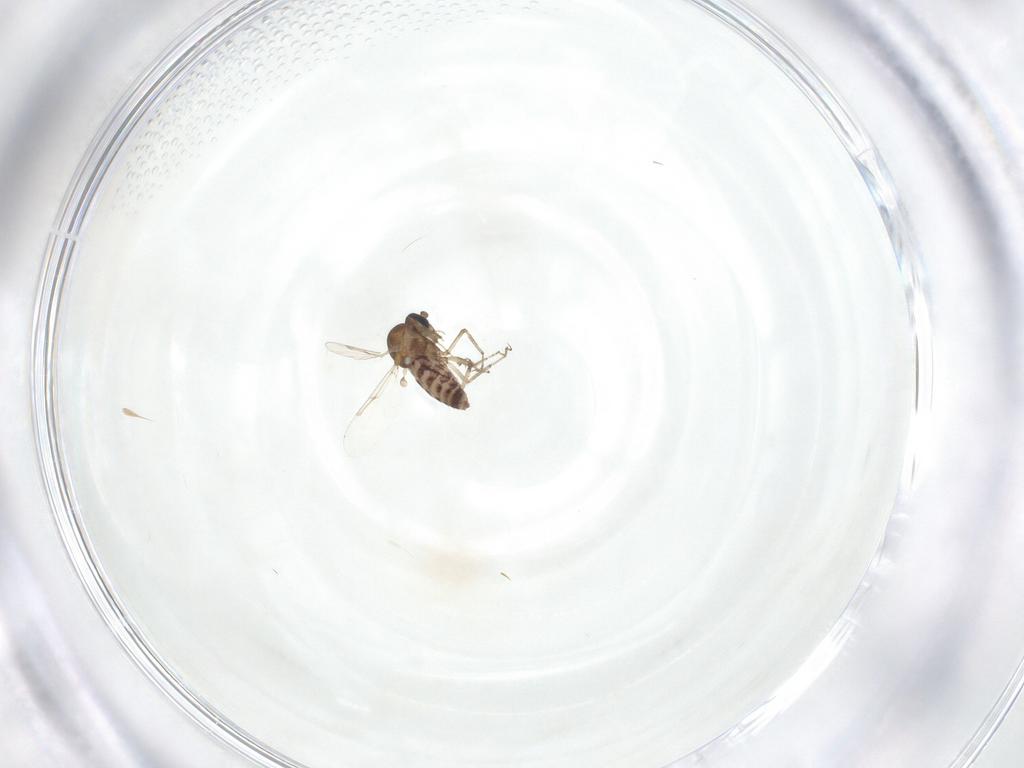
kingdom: Animalia
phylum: Arthropoda
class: Insecta
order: Diptera
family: Ceratopogonidae
